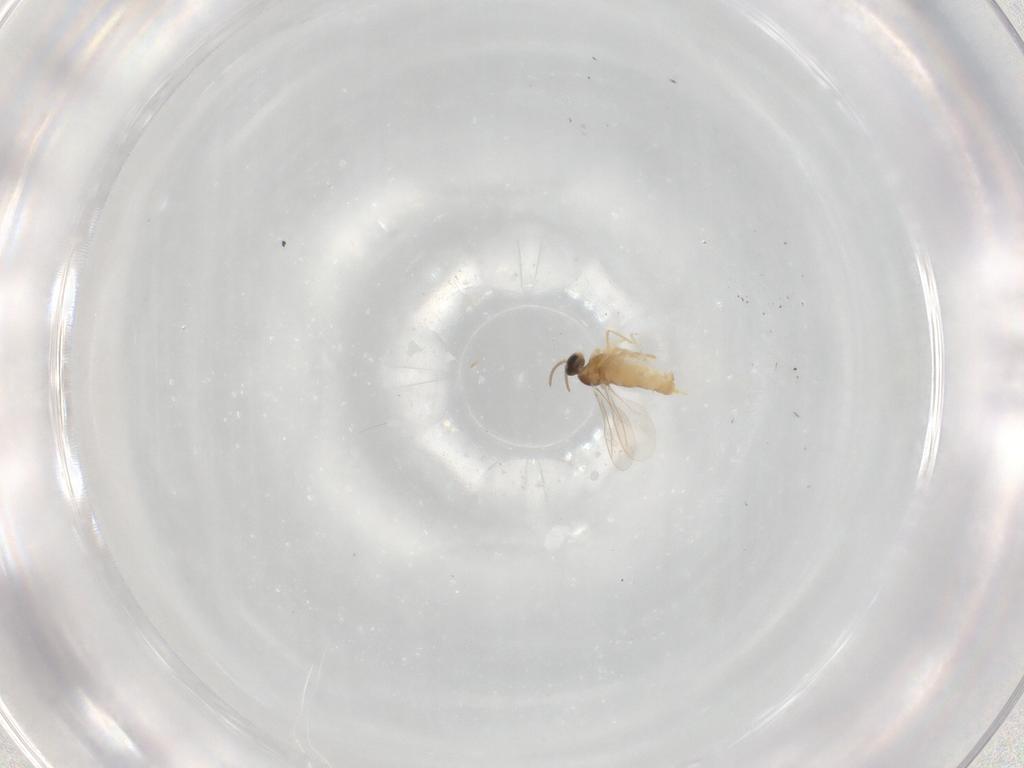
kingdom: Animalia
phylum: Arthropoda
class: Insecta
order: Diptera
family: Cecidomyiidae
